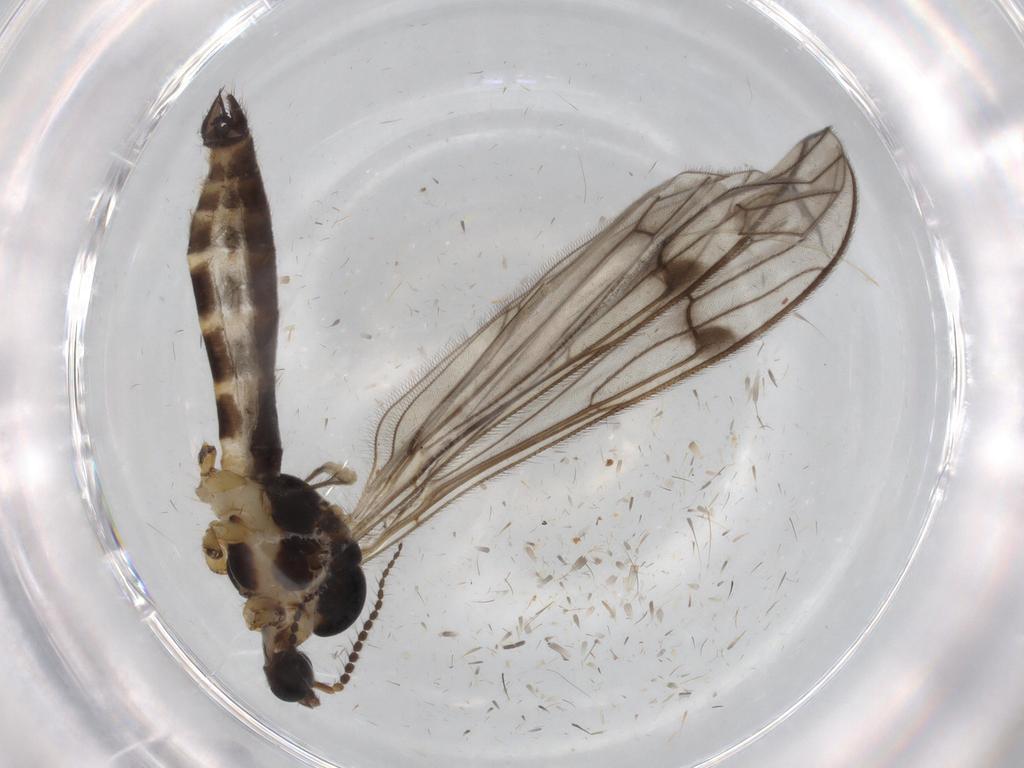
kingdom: Animalia
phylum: Arthropoda
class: Insecta
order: Diptera
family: Limoniidae
